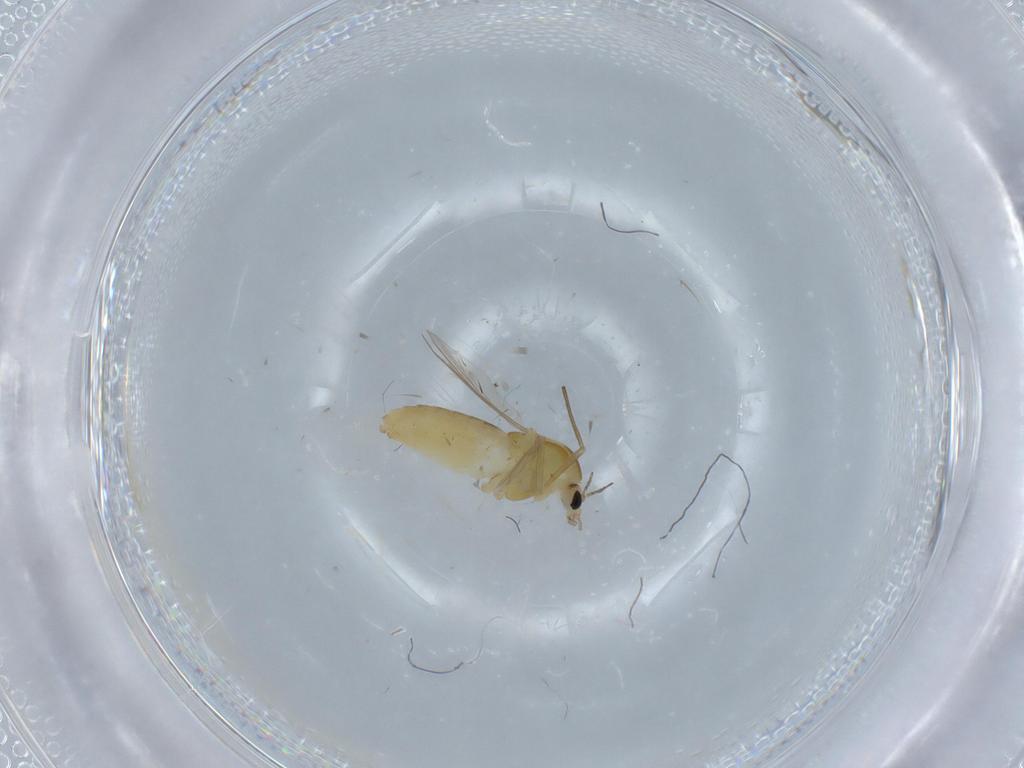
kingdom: Animalia
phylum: Arthropoda
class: Insecta
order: Diptera
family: Chironomidae
